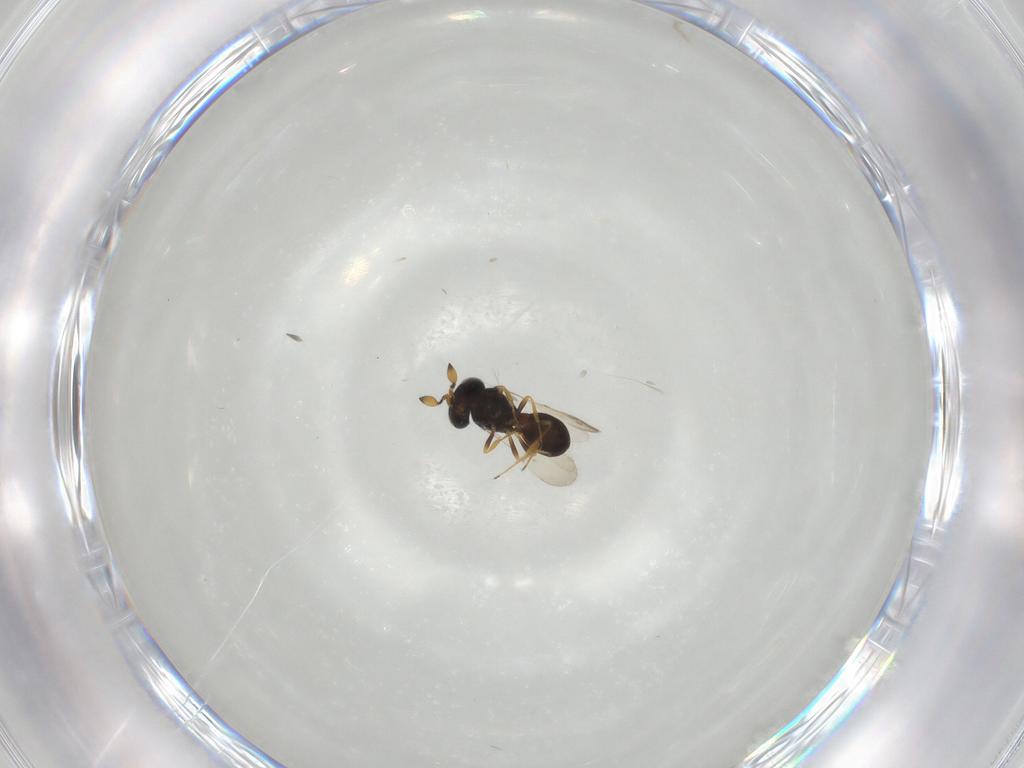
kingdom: Animalia
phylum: Arthropoda
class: Insecta
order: Hymenoptera
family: Scelionidae
